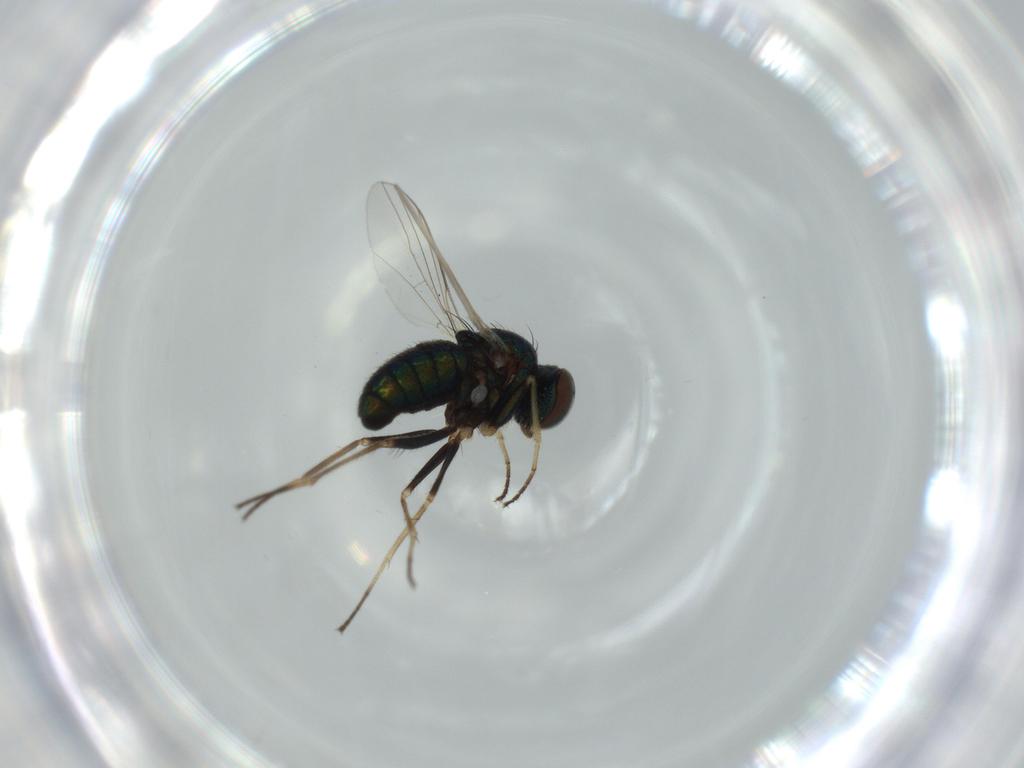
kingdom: Animalia
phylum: Arthropoda
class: Insecta
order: Diptera
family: Dolichopodidae
